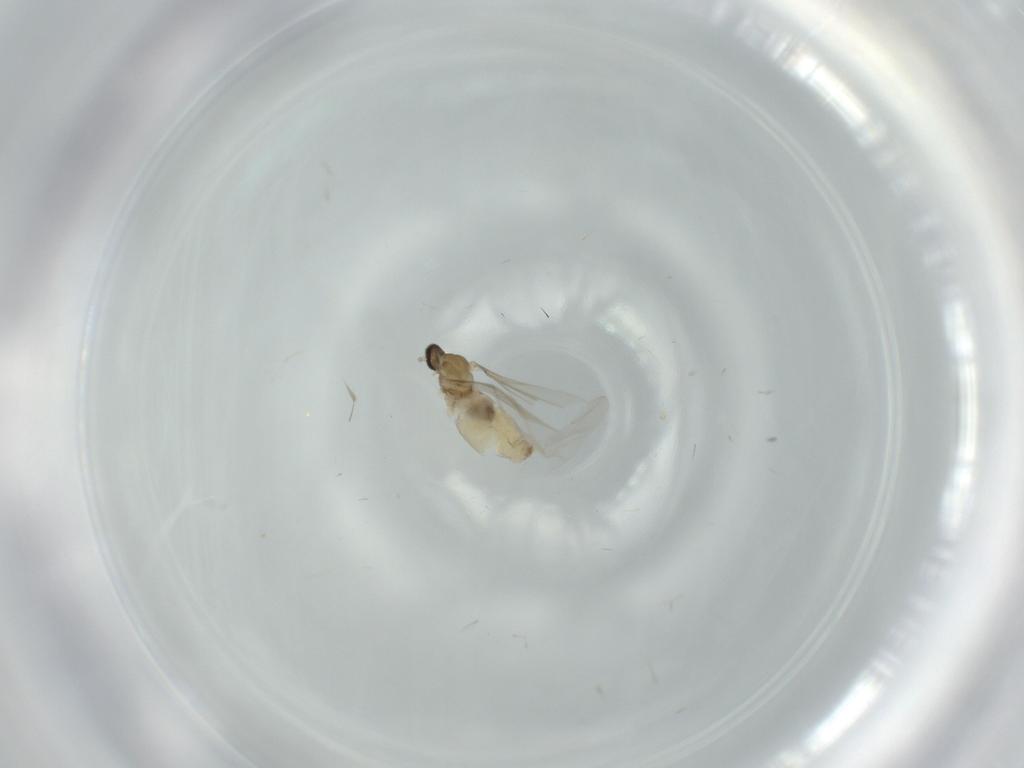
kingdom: Animalia
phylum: Arthropoda
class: Insecta
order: Diptera
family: Cecidomyiidae
